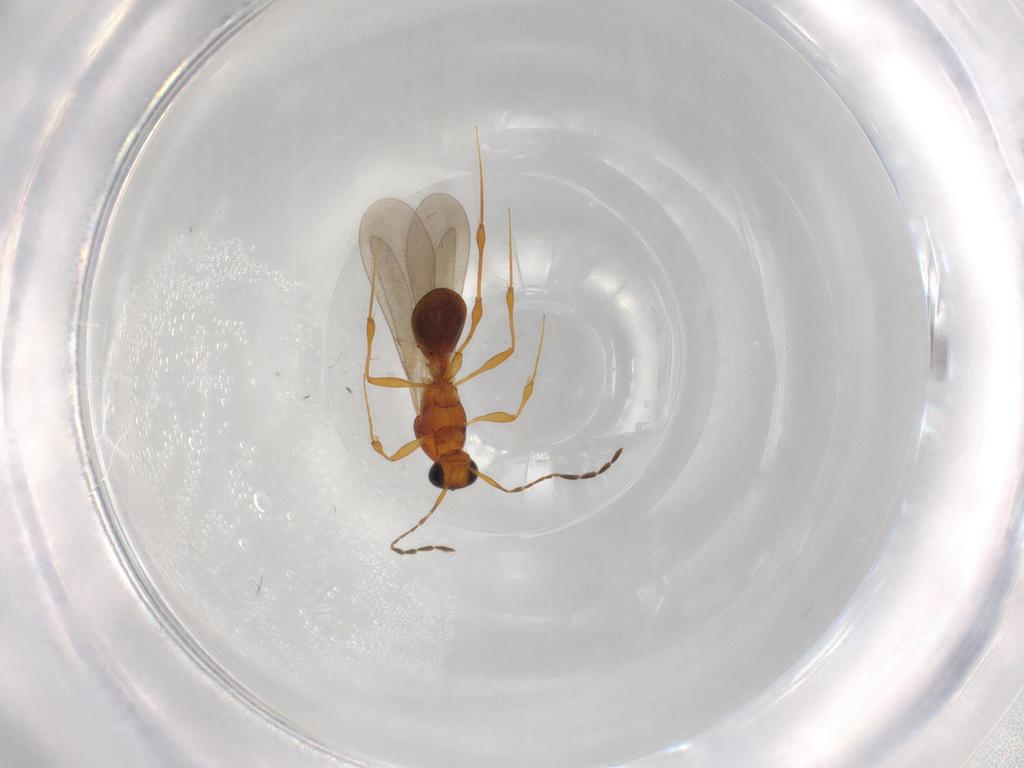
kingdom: Animalia
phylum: Arthropoda
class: Insecta
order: Hymenoptera
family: Platygastridae
